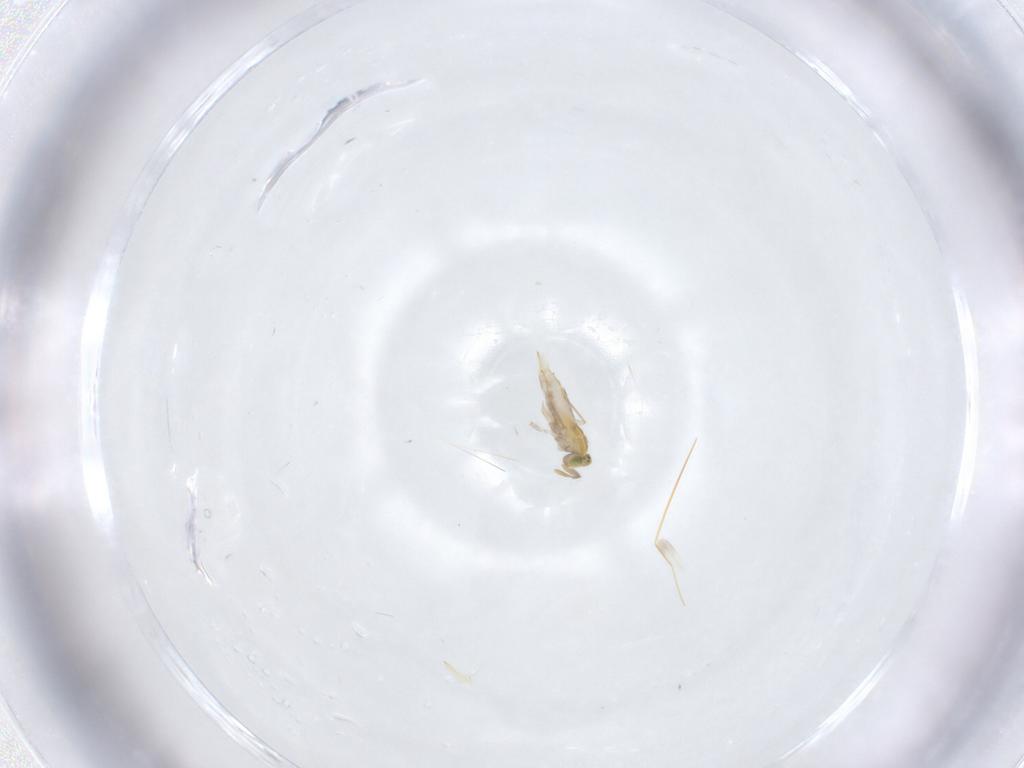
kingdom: Animalia
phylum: Arthropoda
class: Insecta
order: Hymenoptera
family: Aphelinidae
